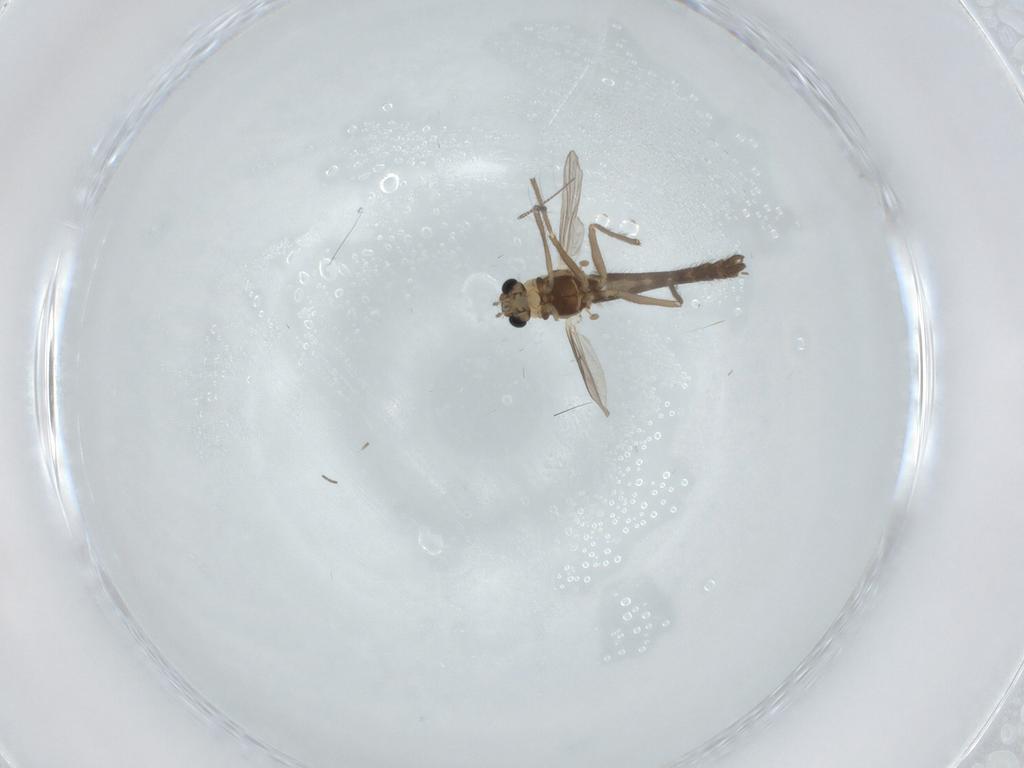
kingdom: Animalia
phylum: Arthropoda
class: Insecta
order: Diptera
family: Chironomidae
